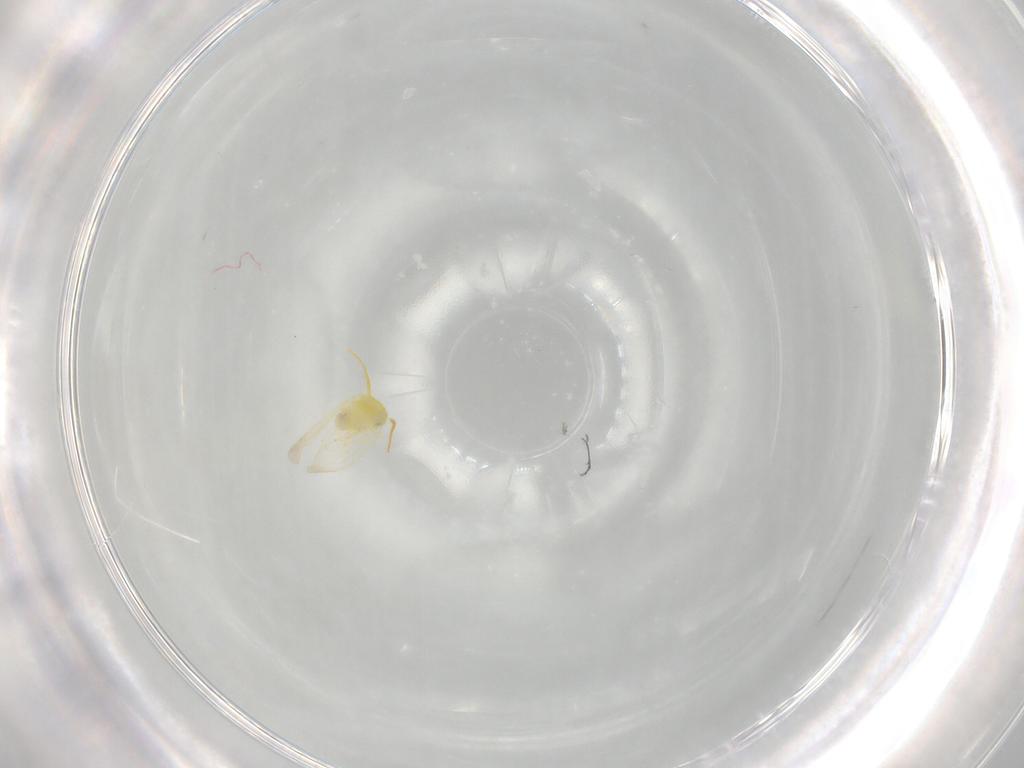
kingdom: Animalia
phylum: Arthropoda
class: Insecta
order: Hemiptera
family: Aleyrodidae
